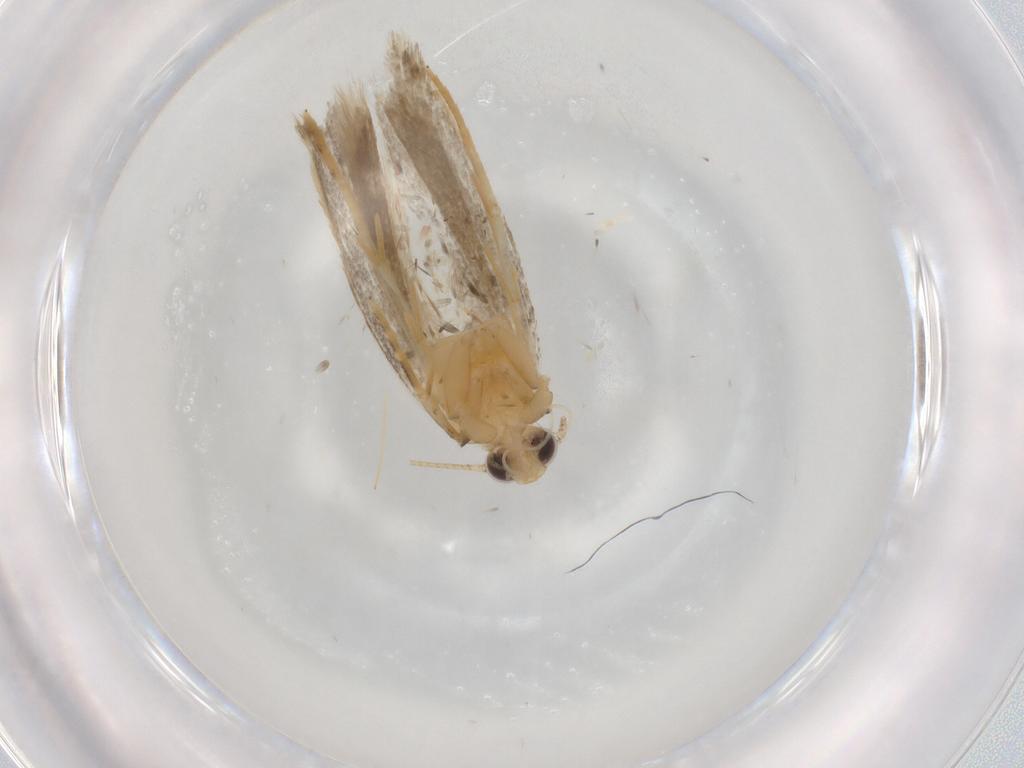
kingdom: Animalia
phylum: Arthropoda
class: Insecta
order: Lepidoptera
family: Autostichidae
